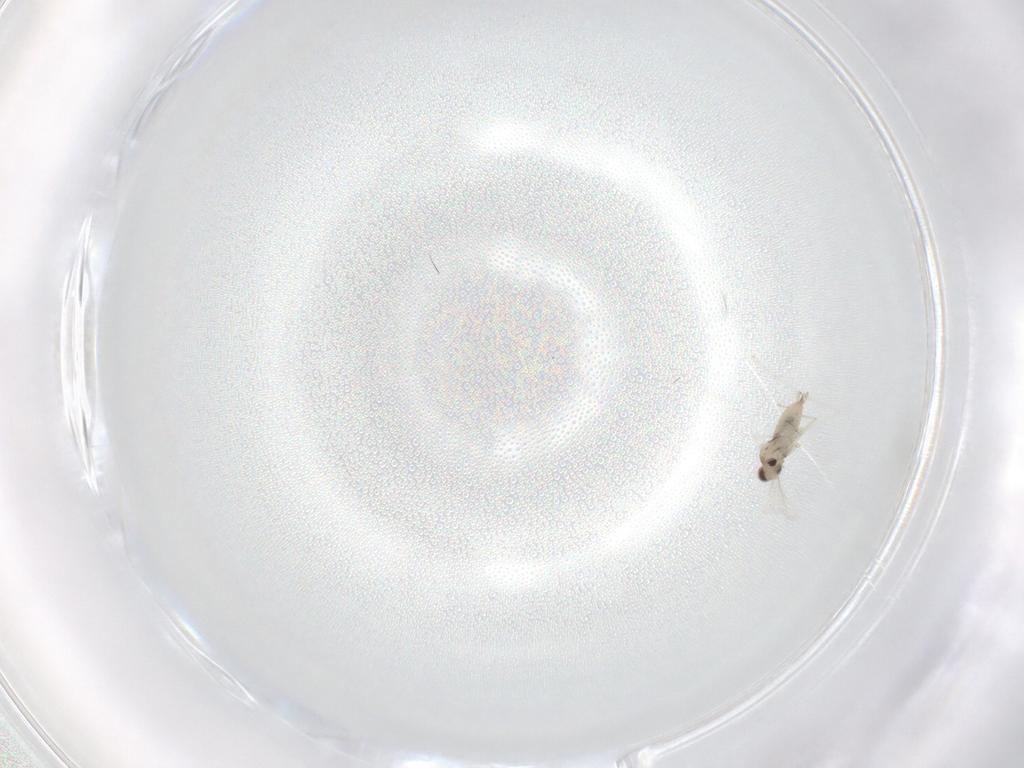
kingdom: Animalia
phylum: Arthropoda
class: Insecta
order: Diptera
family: Cecidomyiidae
